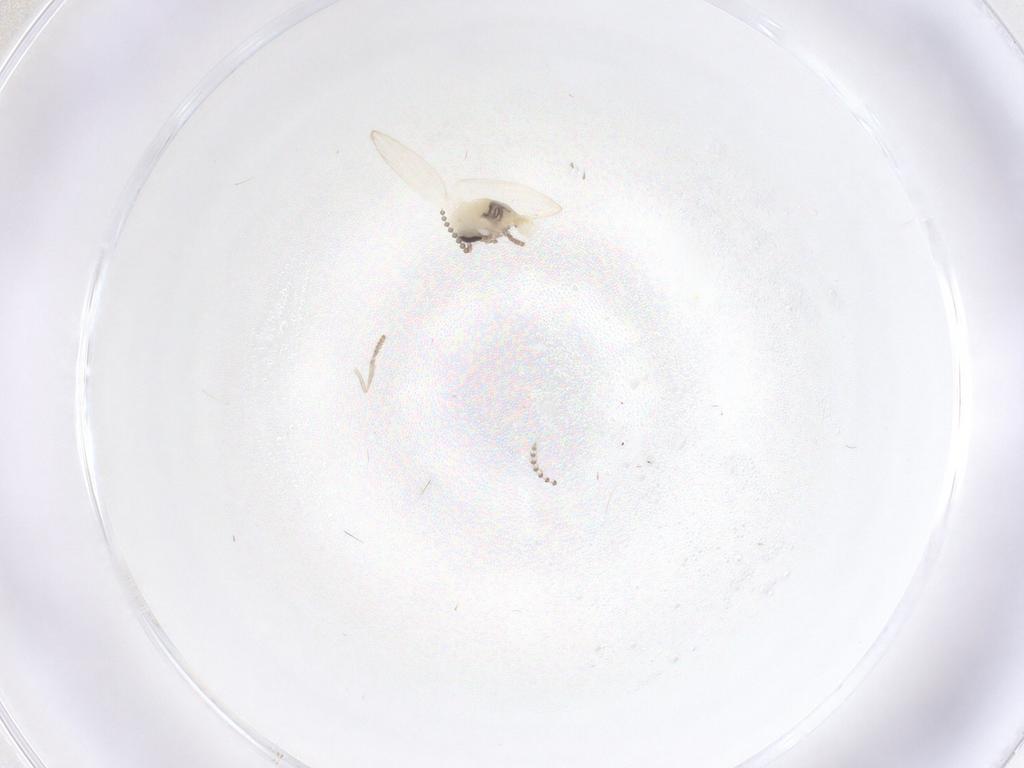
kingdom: Animalia
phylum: Arthropoda
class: Insecta
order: Diptera
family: Psychodidae
